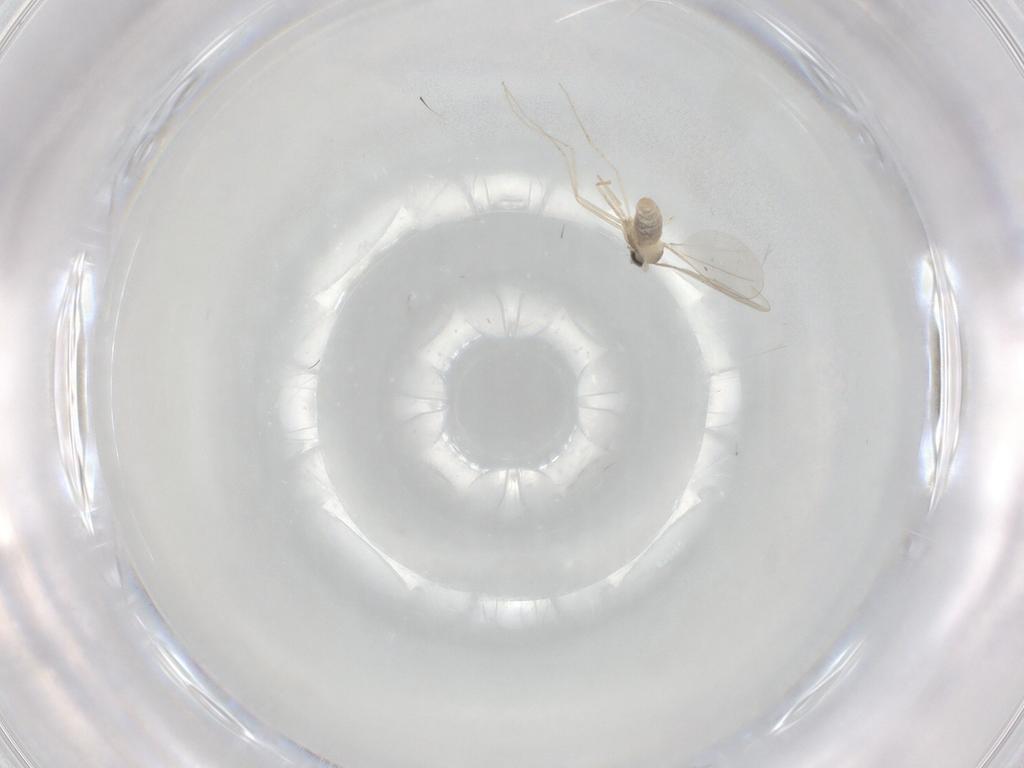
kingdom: Animalia
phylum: Arthropoda
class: Insecta
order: Diptera
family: Cecidomyiidae
